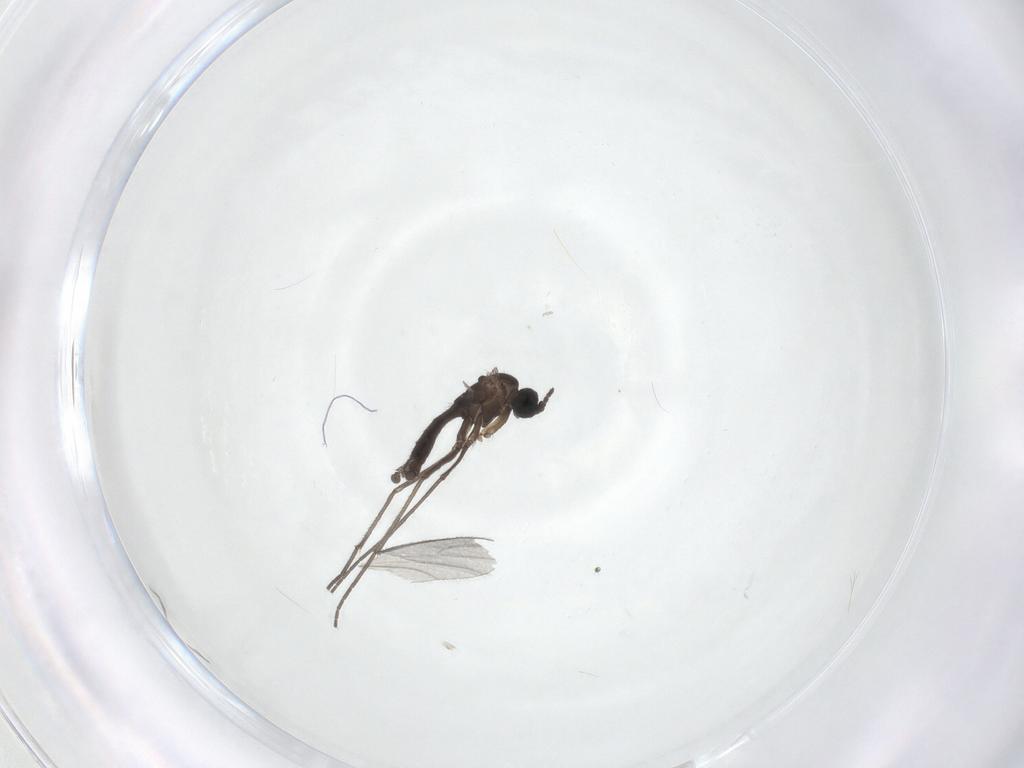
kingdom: Animalia
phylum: Arthropoda
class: Insecta
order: Diptera
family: Sciaridae
